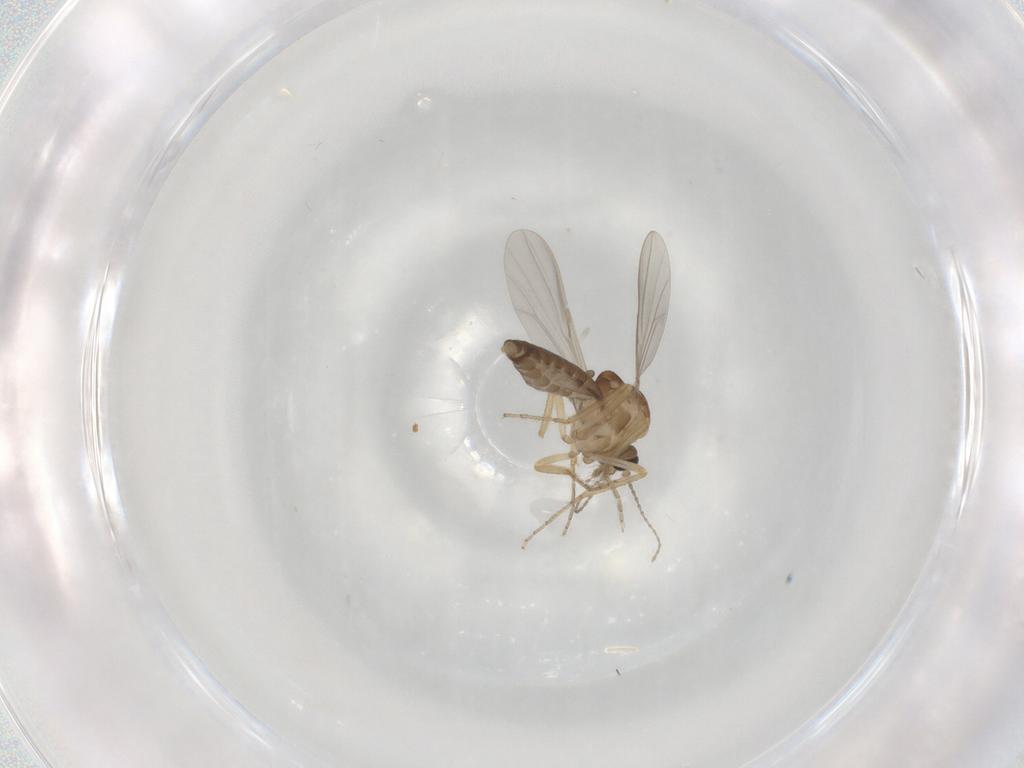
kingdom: Animalia
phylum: Arthropoda
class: Insecta
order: Diptera
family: Ceratopogonidae
